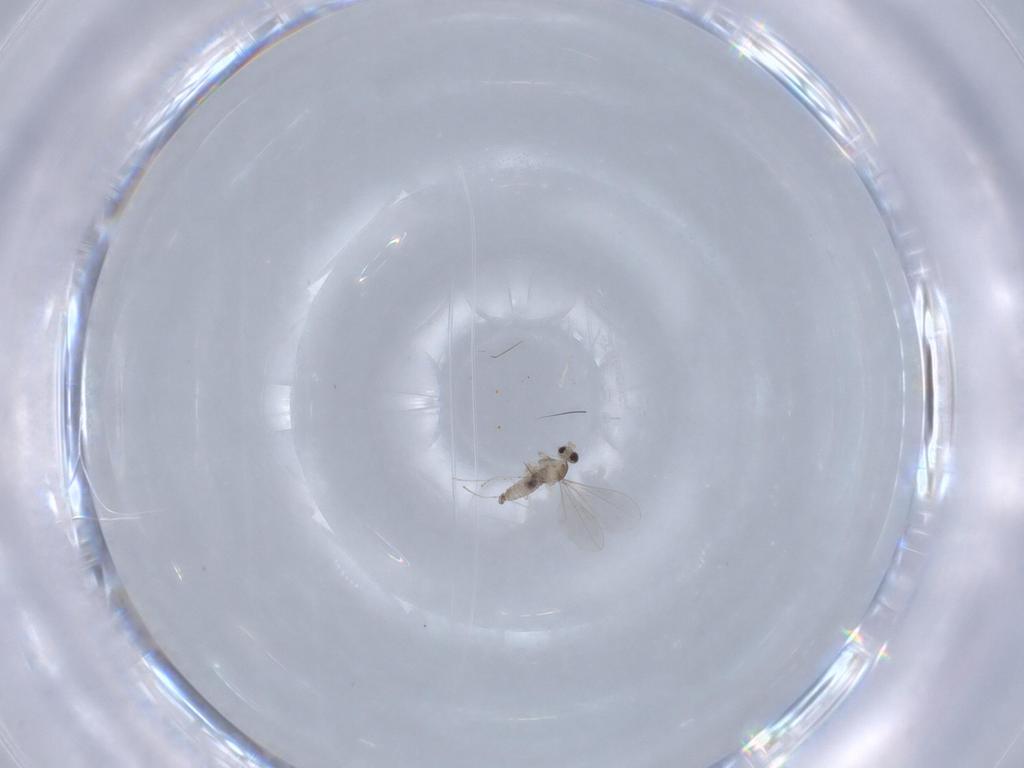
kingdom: Animalia
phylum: Arthropoda
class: Insecta
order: Diptera
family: Cecidomyiidae
